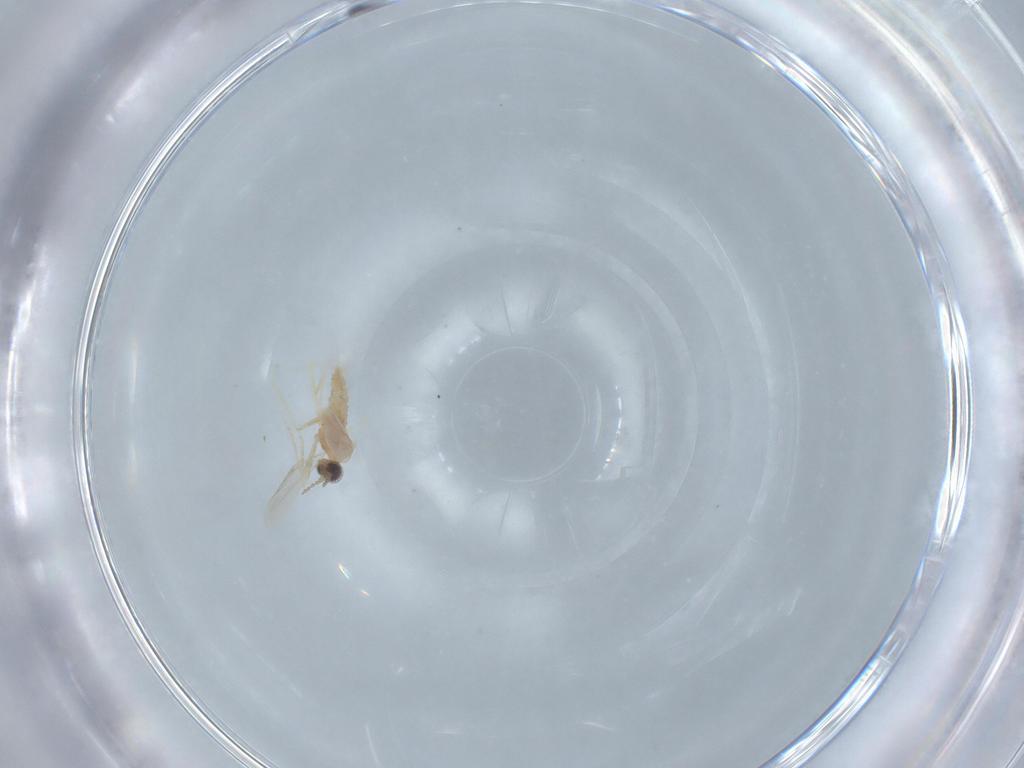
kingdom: Animalia
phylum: Arthropoda
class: Insecta
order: Diptera
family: Cecidomyiidae
